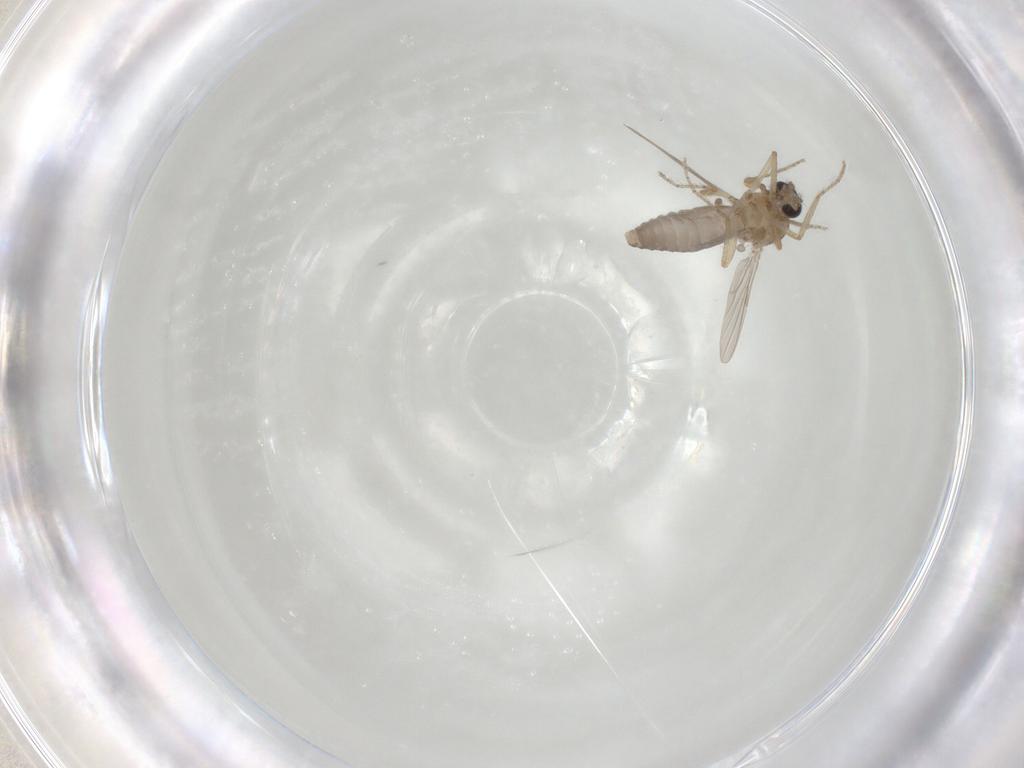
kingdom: Animalia
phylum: Arthropoda
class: Insecta
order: Diptera
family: Ceratopogonidae
